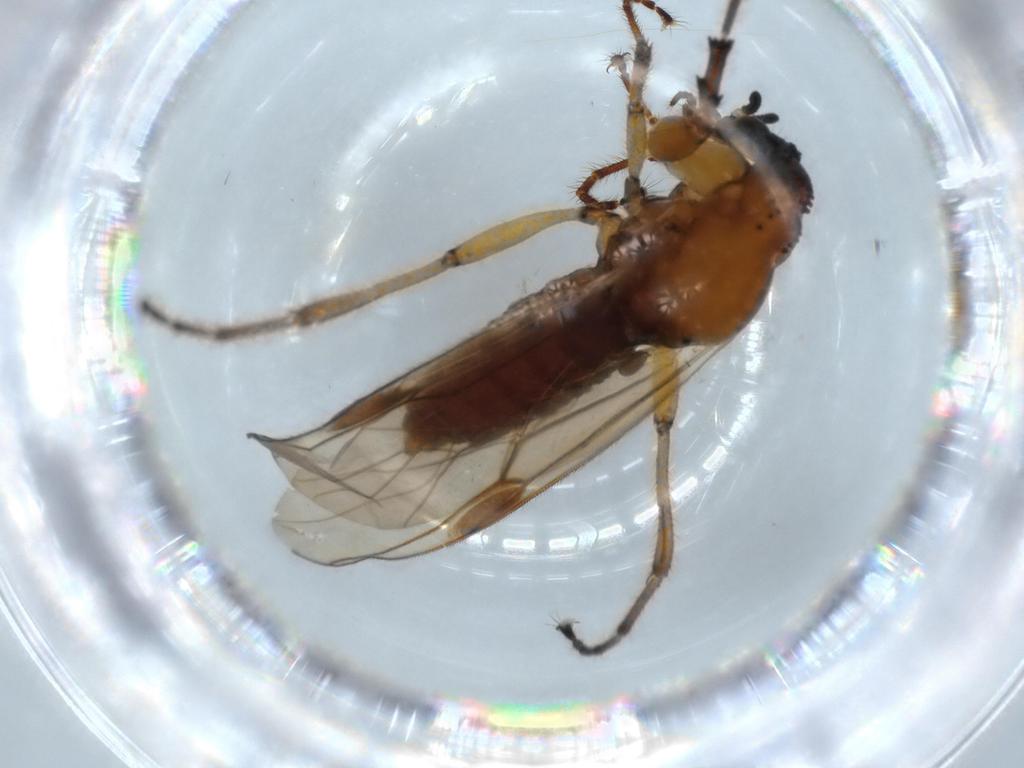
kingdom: Animalia
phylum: Arthropoda
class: Insecta
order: Diptera
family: Bibionidae
